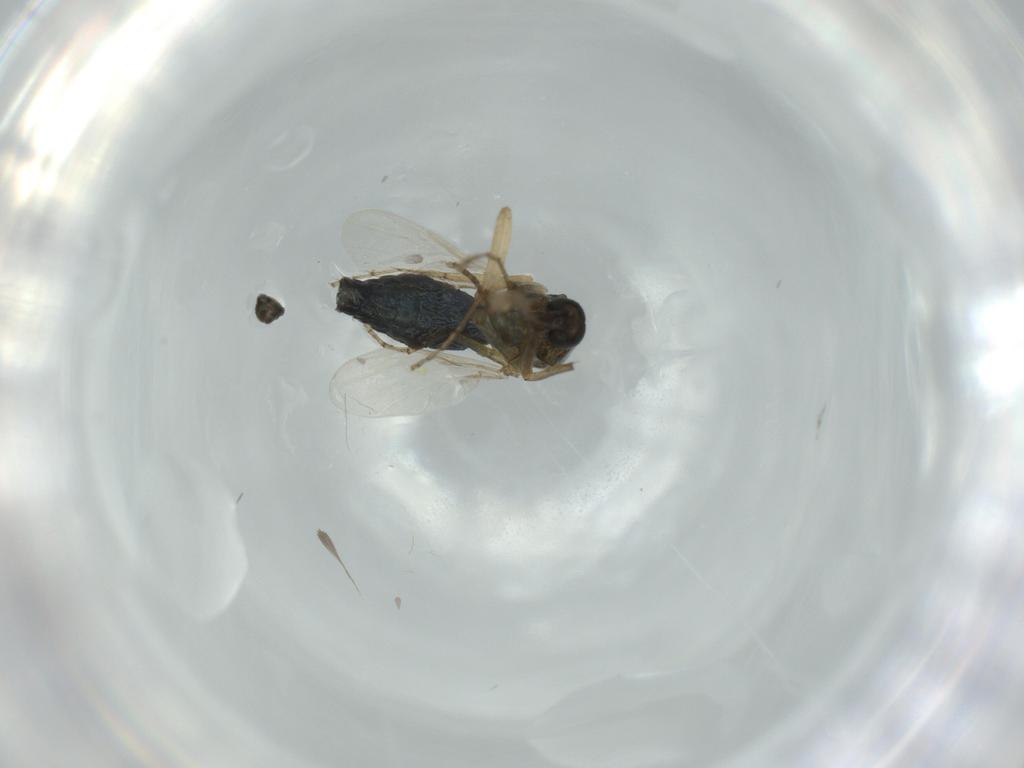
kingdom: Animalia
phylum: Arthropoda
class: Insecta
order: Diptera
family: Ceratopogonidae
